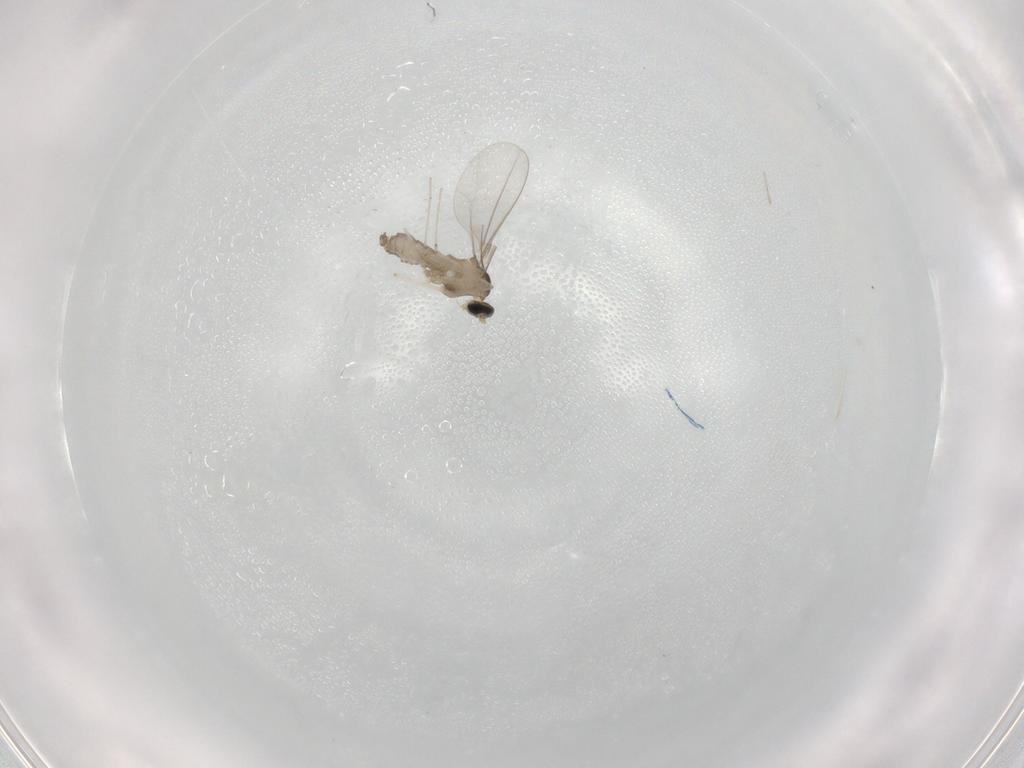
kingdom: Animalia
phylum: Arthropoda
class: Insecta
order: Diptera
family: Cecidomyiidae
